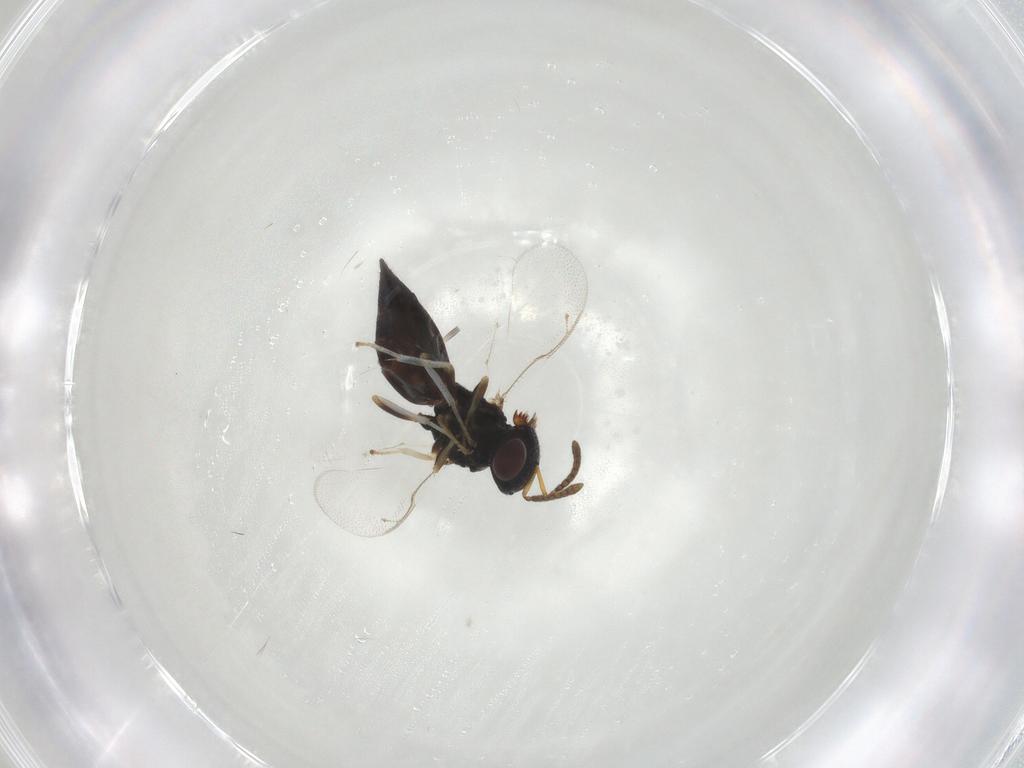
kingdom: Animalia
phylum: Arthropoda
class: Insecta
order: Hymenoptera
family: Pteromalidae
